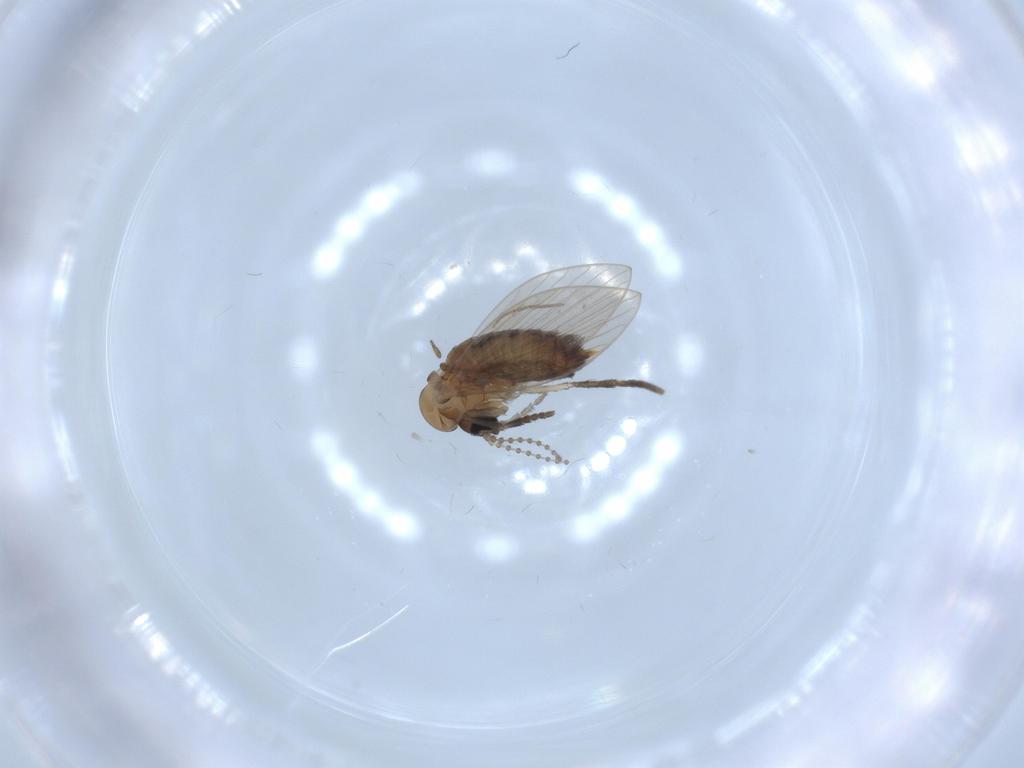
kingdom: Animalia
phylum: Arthropoda
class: Insecta
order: Diptera
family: Psychodidae
